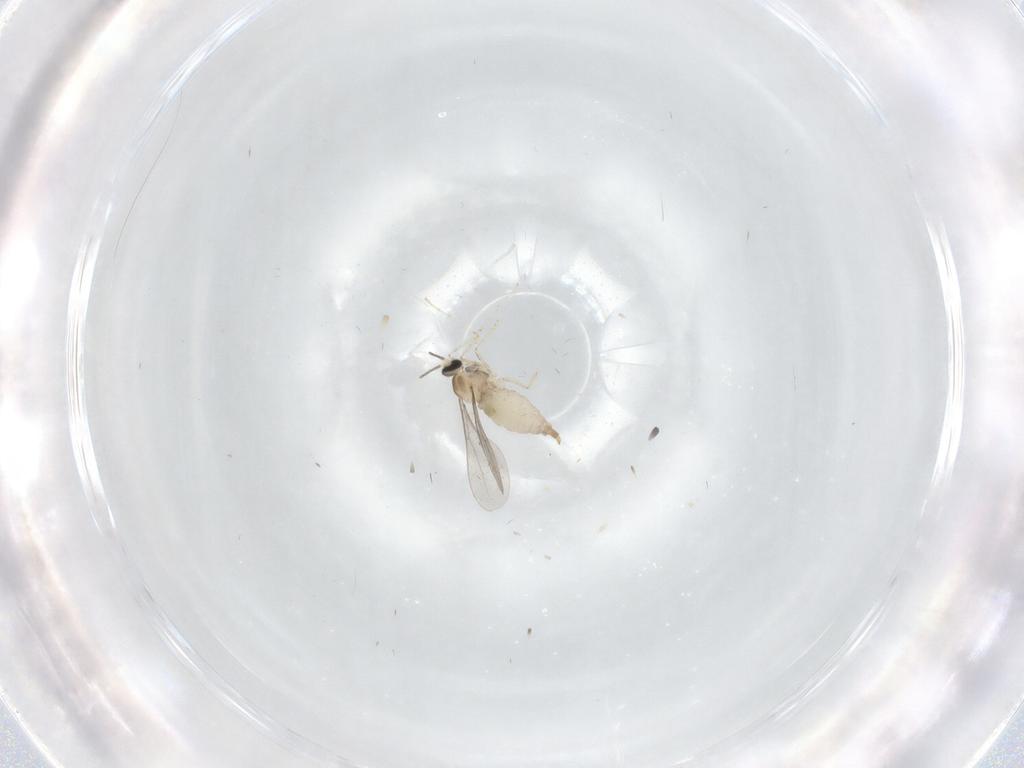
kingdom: Animalia
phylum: Arthropoda
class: Insecta
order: Diptera
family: Cecidomyiidae
